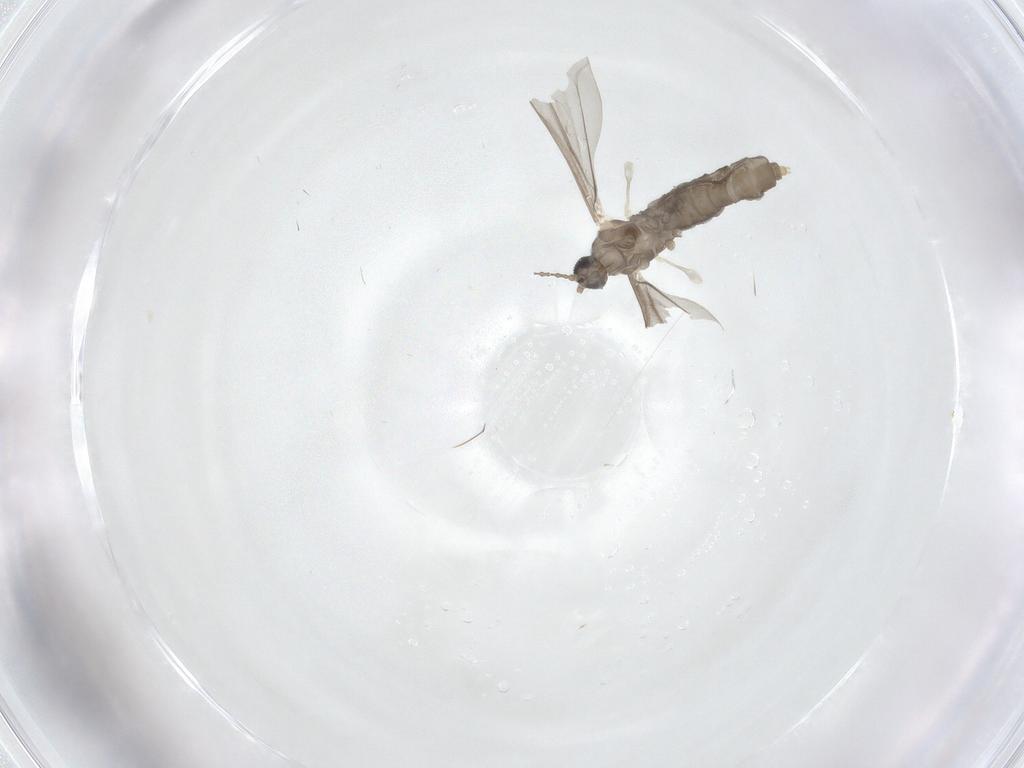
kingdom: Animalia
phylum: Arthropoda
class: Insecta
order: Diptera
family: Cecidomyiidae
